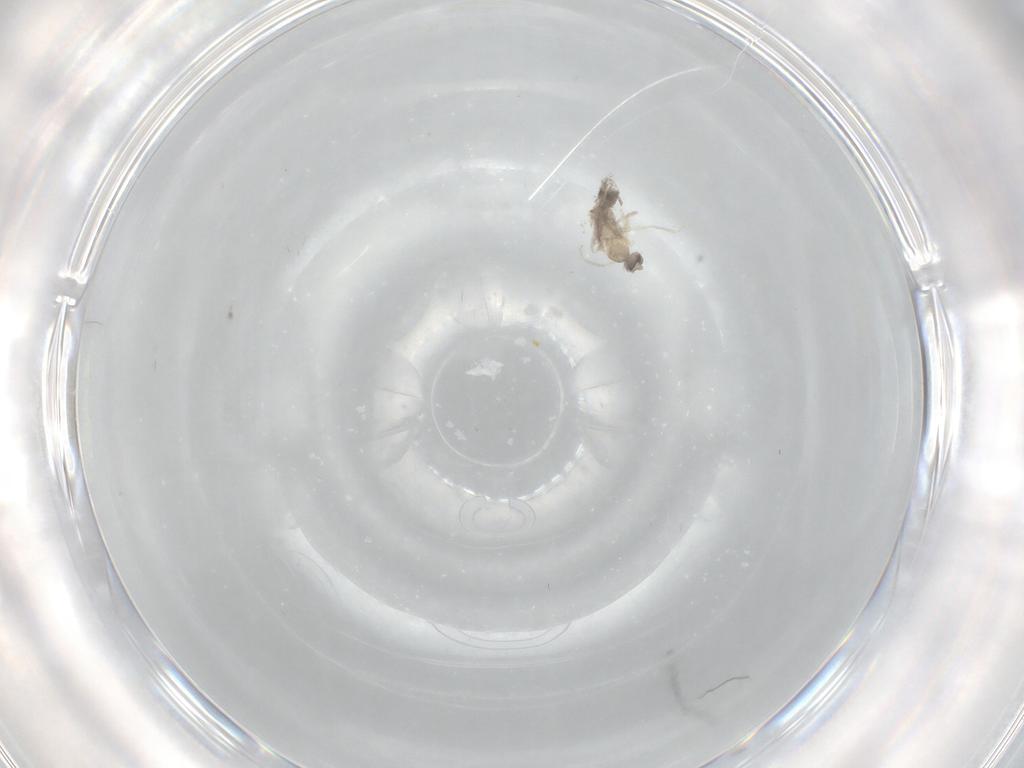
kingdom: Animalia
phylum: Arthropoda
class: Insecta
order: Diptera
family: Cecidomyiidae
